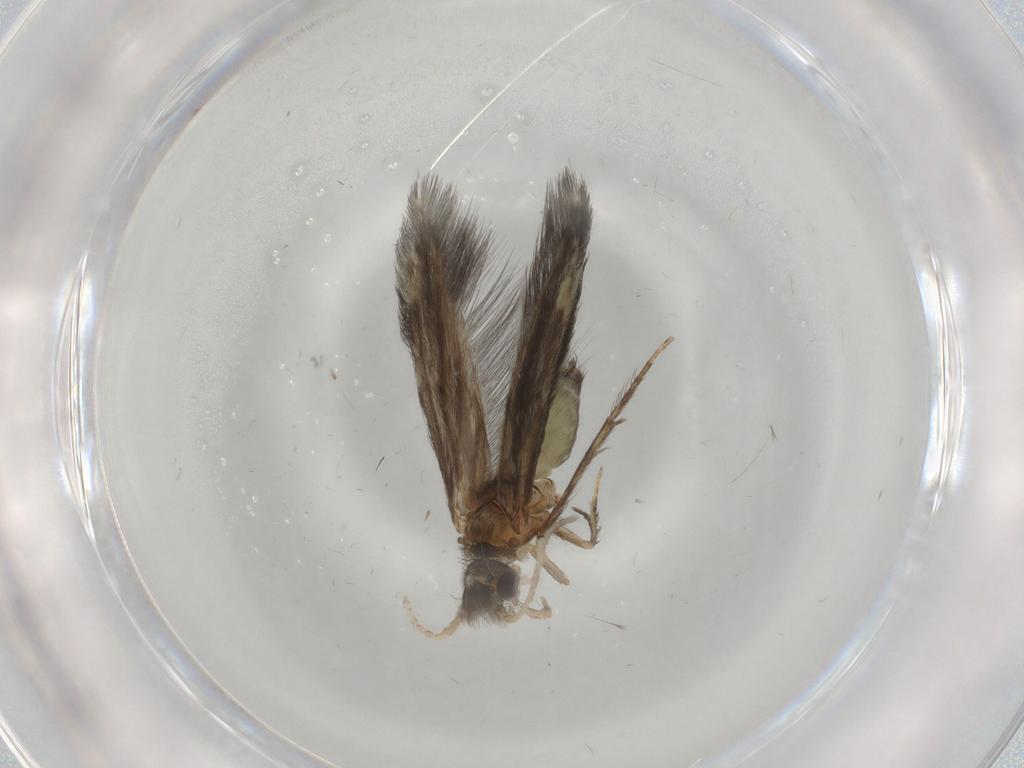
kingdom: Animalia
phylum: Arthropoda
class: Insecta
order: Trichoptera
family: Hydroptilidae
